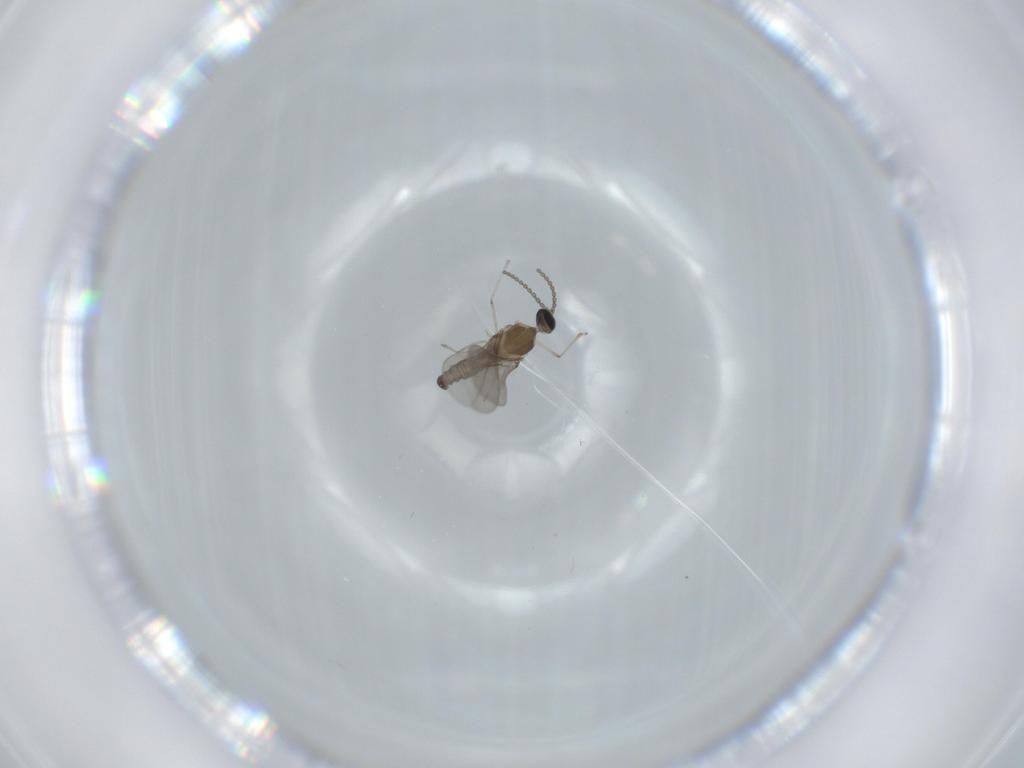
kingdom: Animalia
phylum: Arthropoda
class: Insecta
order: Diptera
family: Cecidomyiidae
